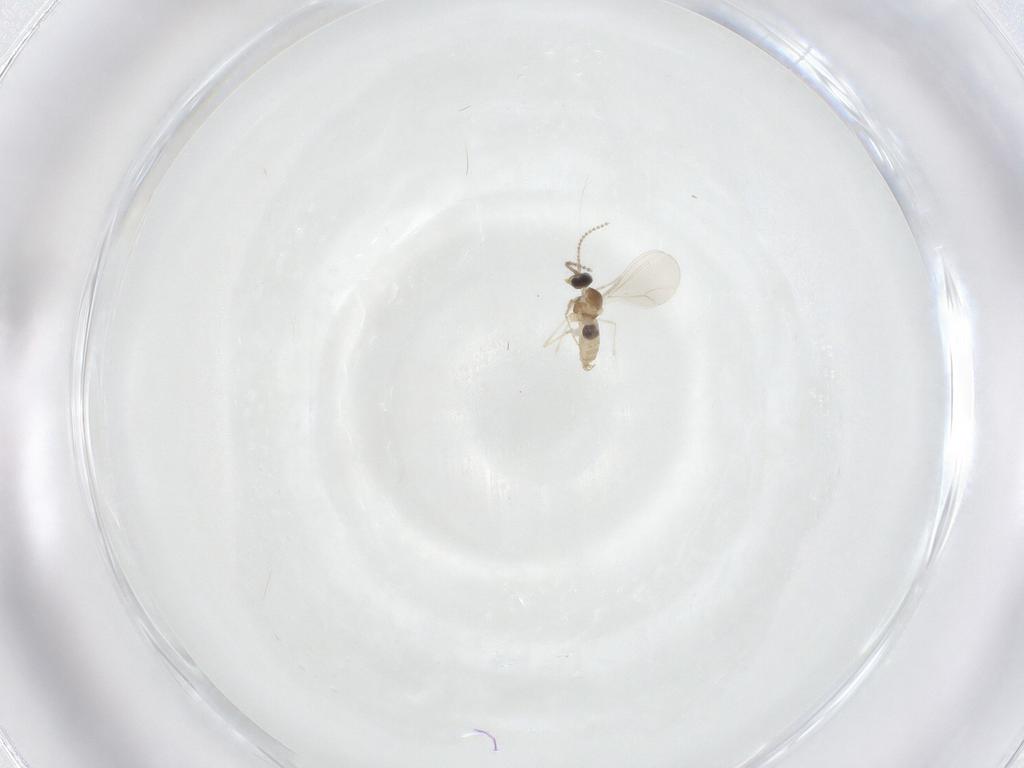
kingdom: Animalia
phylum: Arthropoda
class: Insecta
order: Diptera
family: Cecidomyiidae
